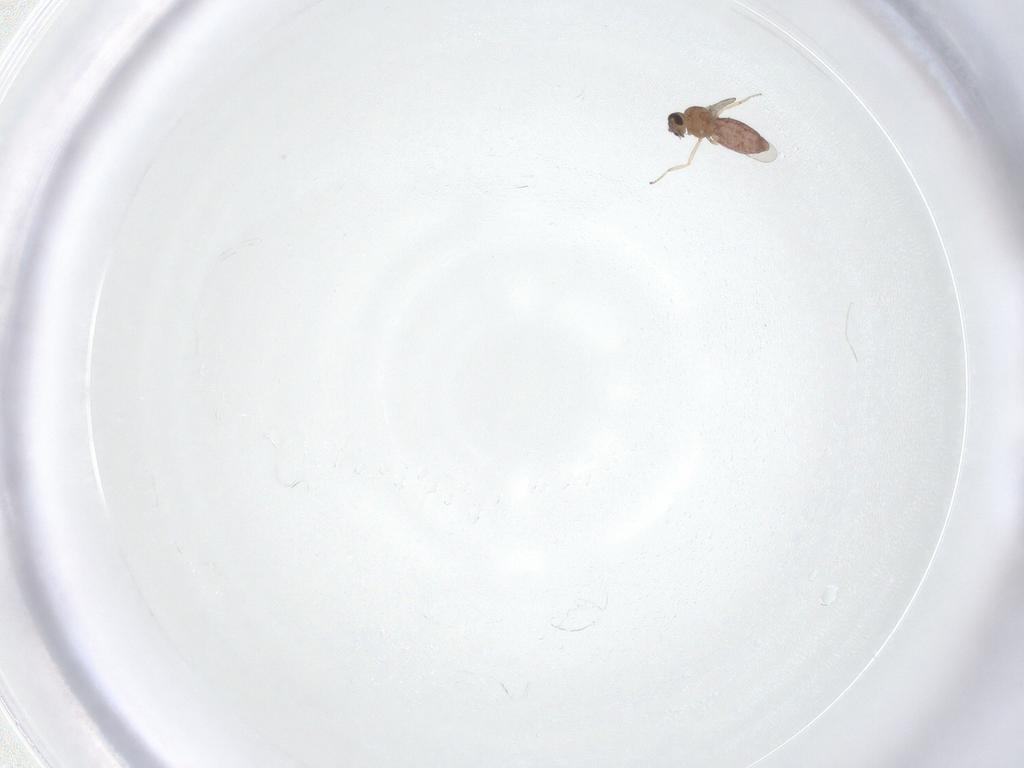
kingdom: Animalia
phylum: Arthropoda
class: Insecta
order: Diptera
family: Ceratopogonidae
